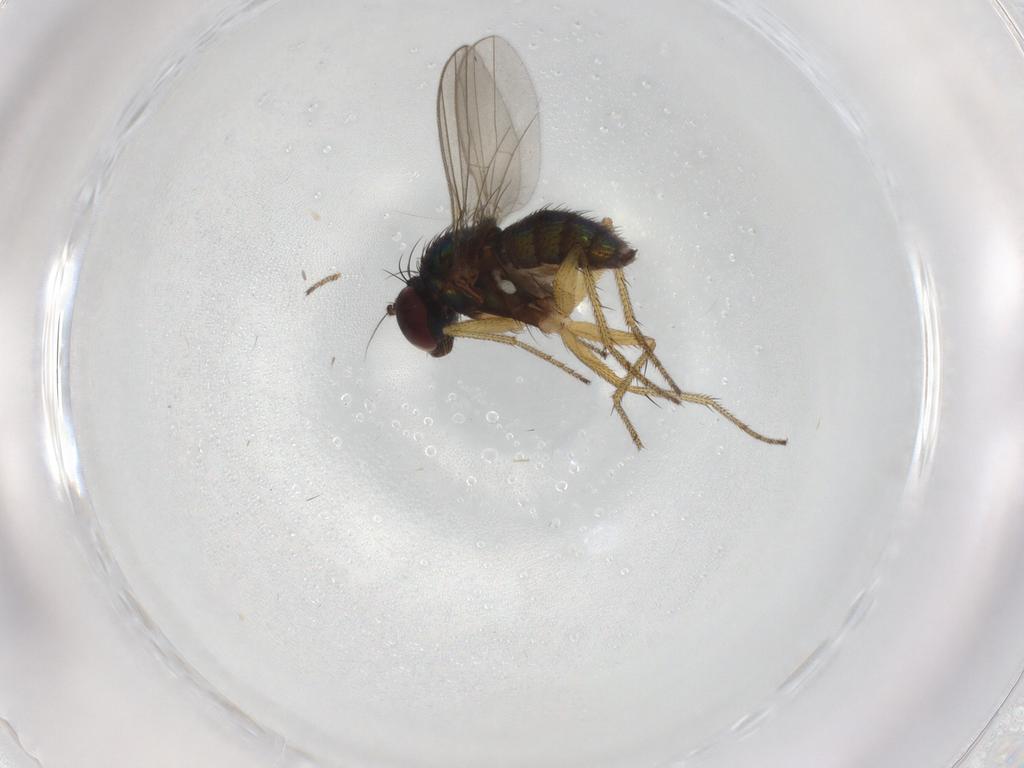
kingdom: Animalia
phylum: Arthropoda
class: Insecta
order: Diptera
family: Dolichopodidae
